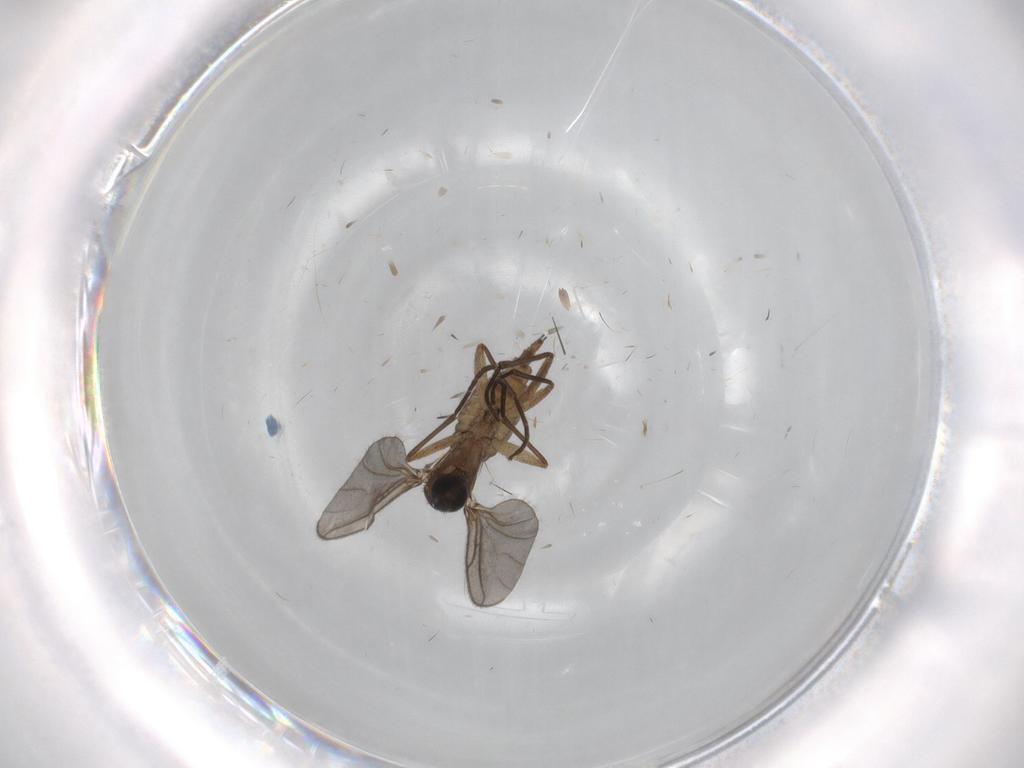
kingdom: Animalia
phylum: Arthropoda
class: Insecta
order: Diptera
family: Sciaridae
